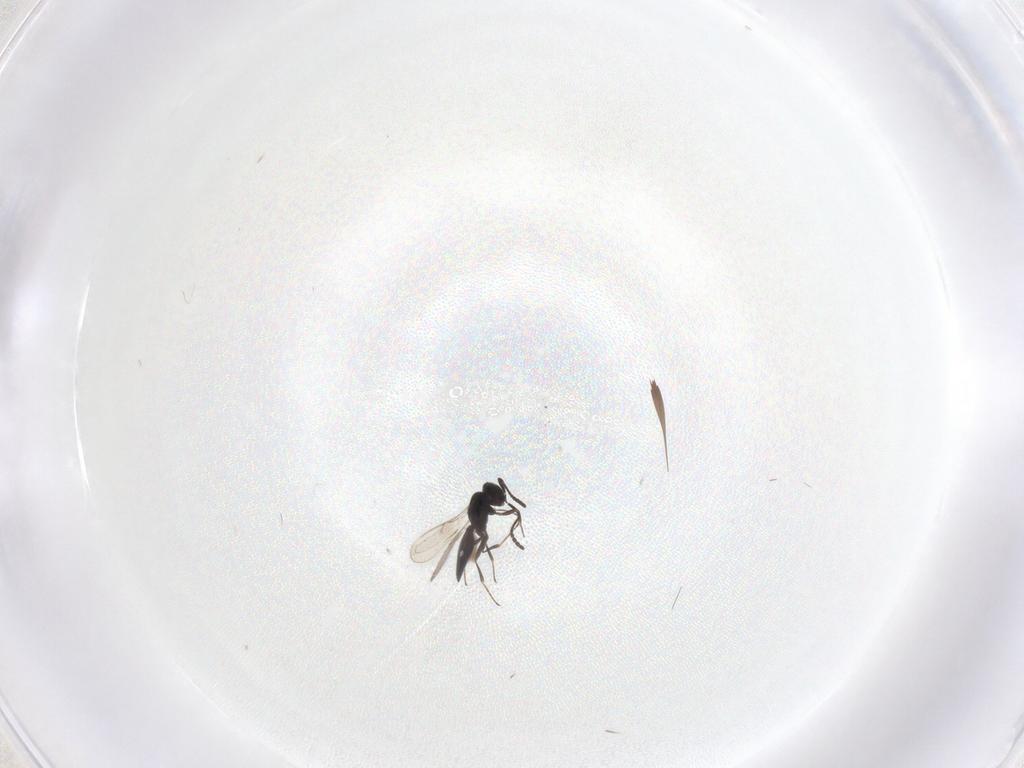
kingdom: Animalia
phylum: Arthropoda
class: Insecta
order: Hymenoptera
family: Scelionidae
